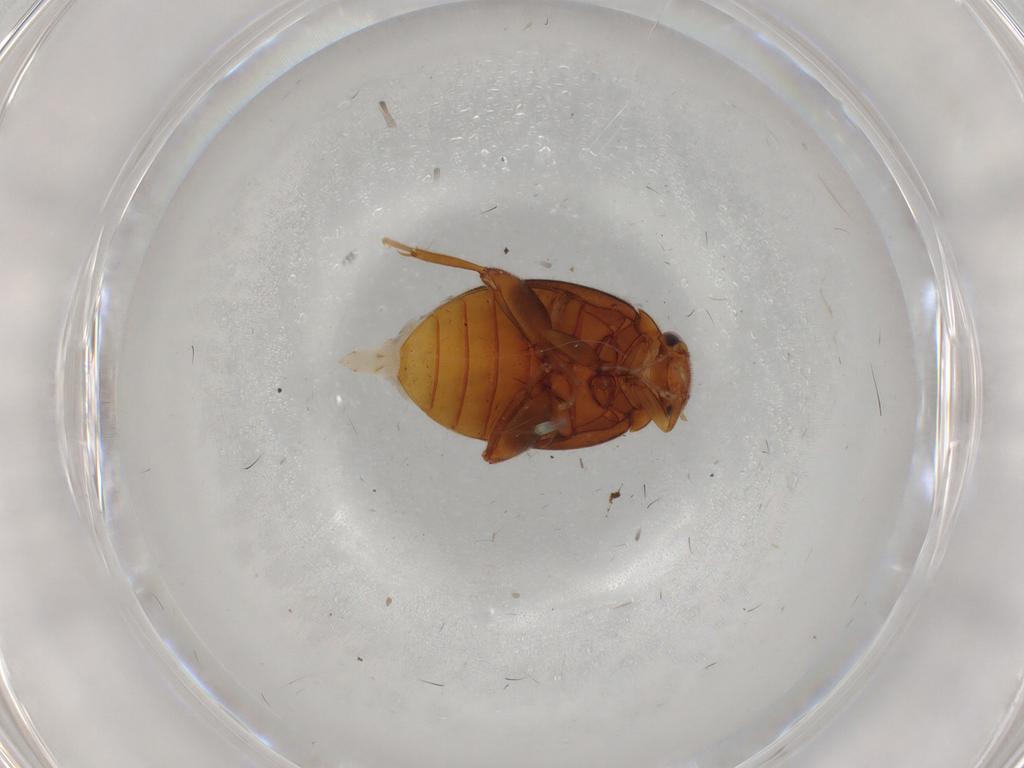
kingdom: Animalia
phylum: Arthropoda
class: Insecta
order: Coleoptera
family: Scirtidae
